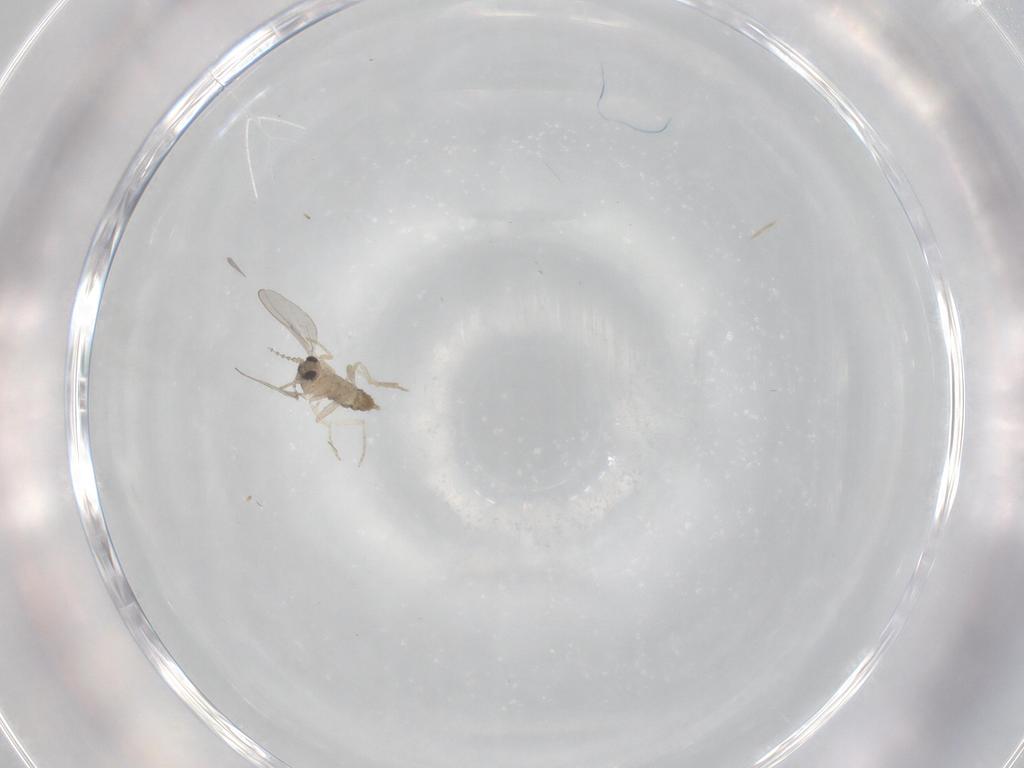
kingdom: Animalia
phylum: Arthropoda
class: Insecta
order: Diptera
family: Cecidomyiidae
